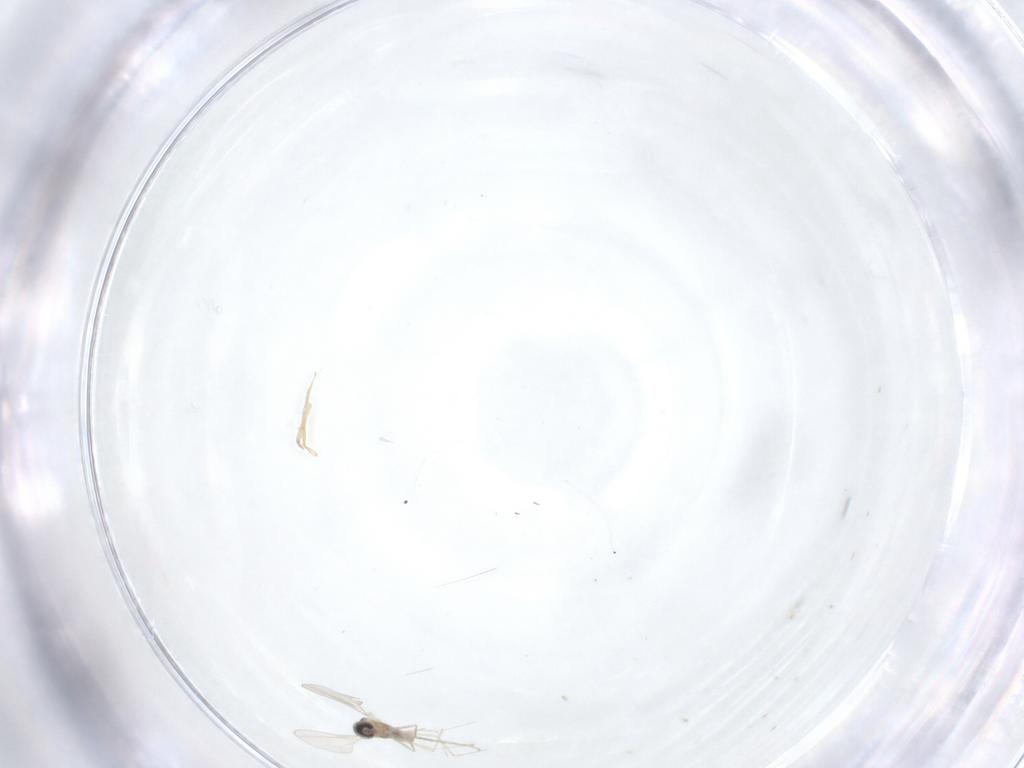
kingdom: Animalia
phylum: Arthropoda
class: Insecta
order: Diptera
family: Cecidomyiidae
